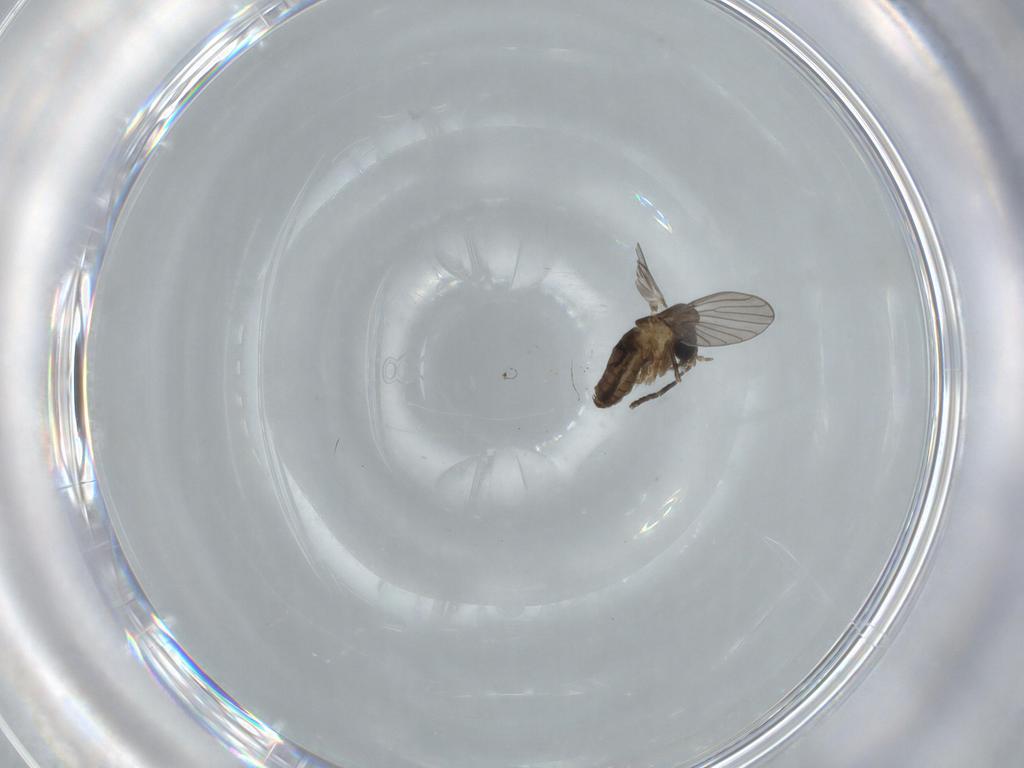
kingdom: Animalia
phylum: Arthropoda
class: Insecta
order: Diptera
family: Psychodidae
